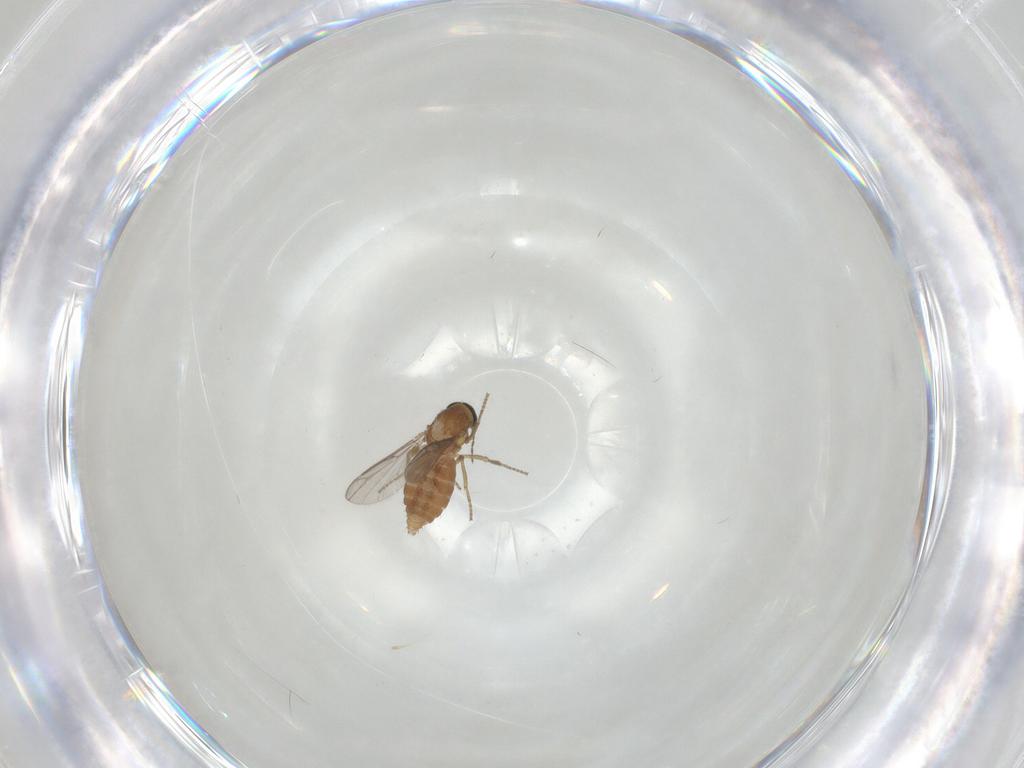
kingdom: Animalia
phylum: Arthropoda
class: Insecta
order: Diptera
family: Ceratopogonidae
